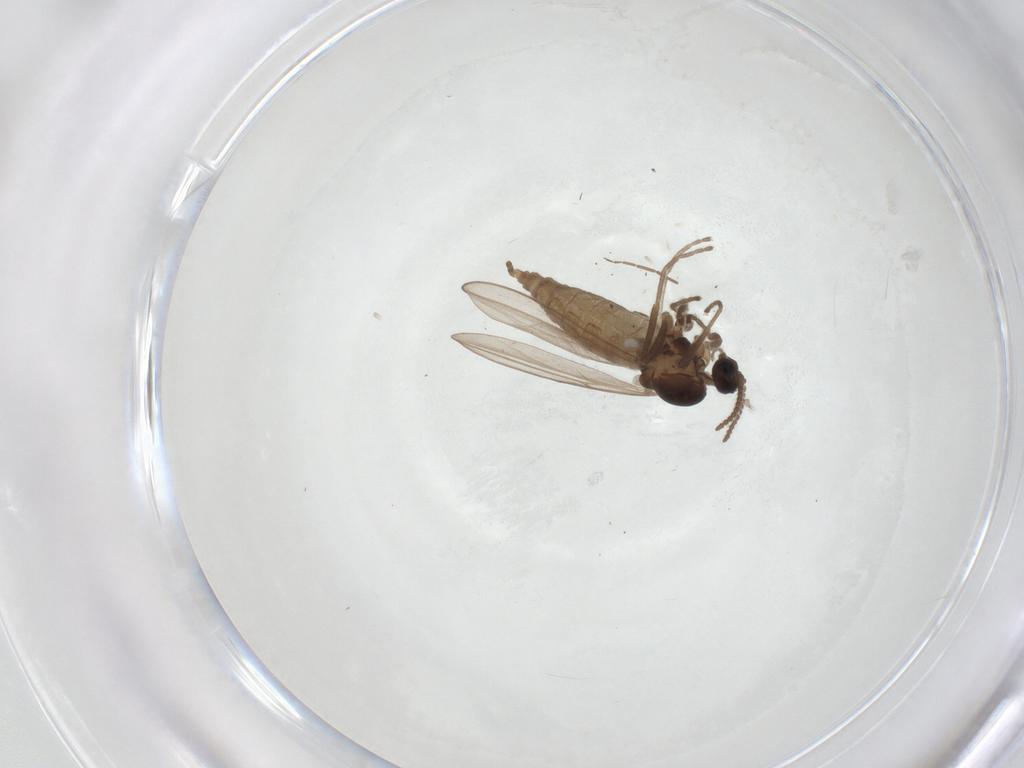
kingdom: Animalia
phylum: Arthropoda
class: Insecta
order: Diptera
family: Cecidomyiidae
